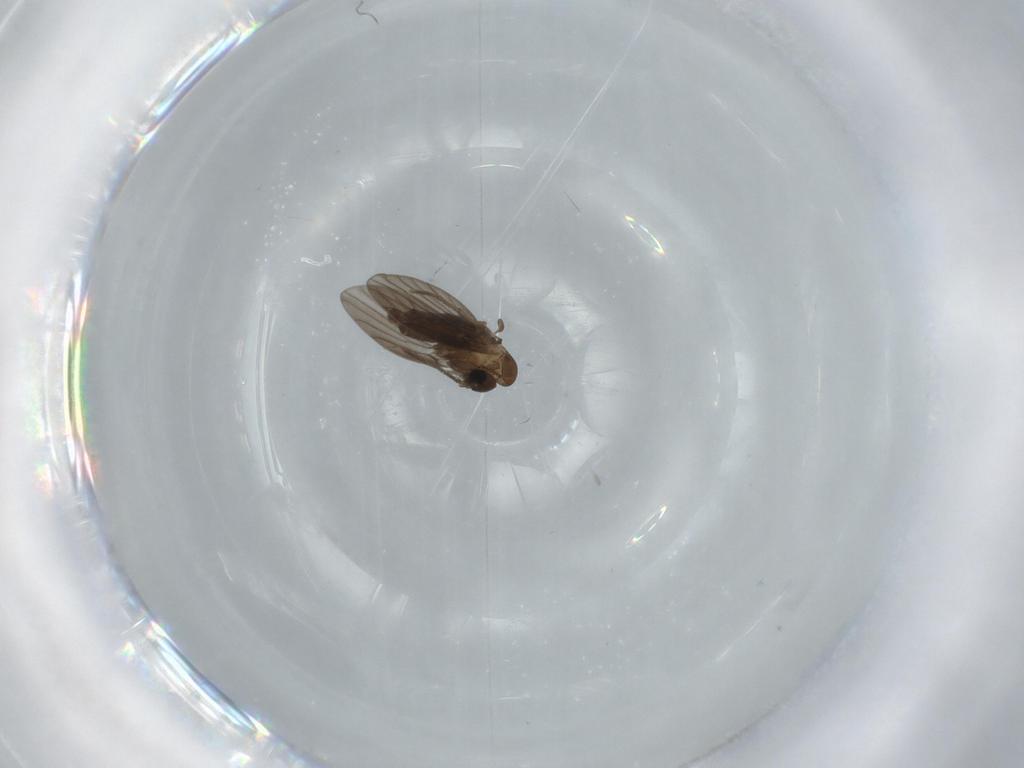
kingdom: Animalia
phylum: Arthropoda
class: Insecta
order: Diptera
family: Psychodidae
